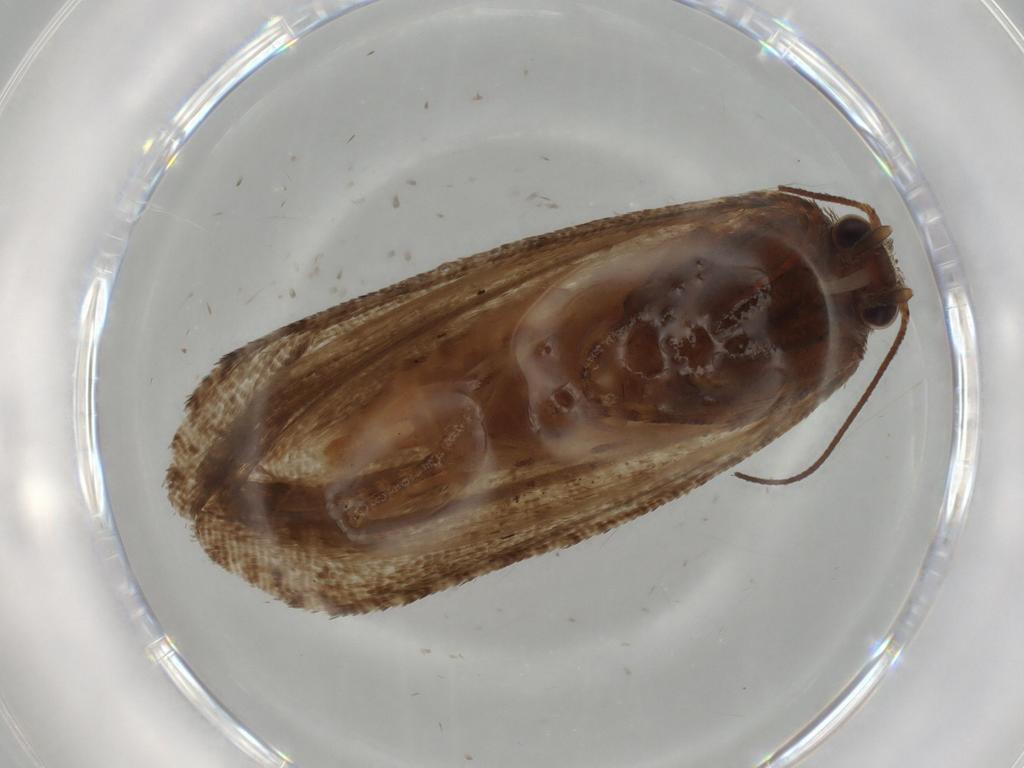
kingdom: Animalia
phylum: Arthropoda
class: Insecta
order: Lepidoptera
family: Tortricidae
